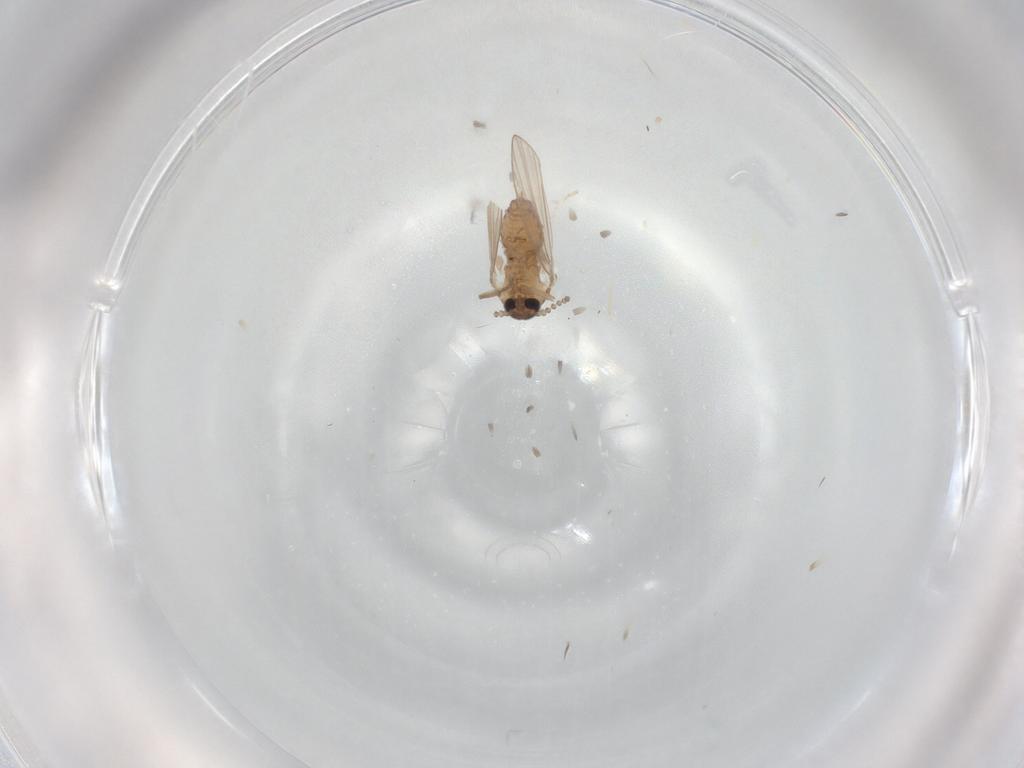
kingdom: Animalia
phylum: Arthropoda
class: Insecta
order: Diptera
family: Psychodidae
